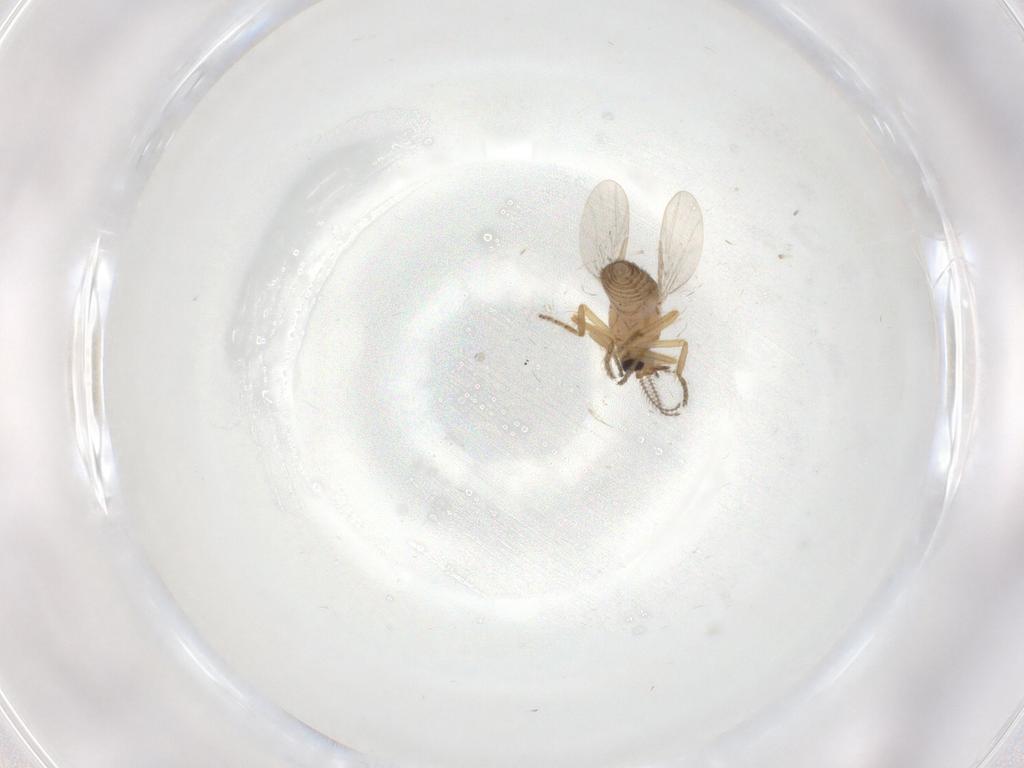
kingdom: Animalia
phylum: Arthropoda
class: Insecta
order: Diptera
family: Ceratopogonidae
